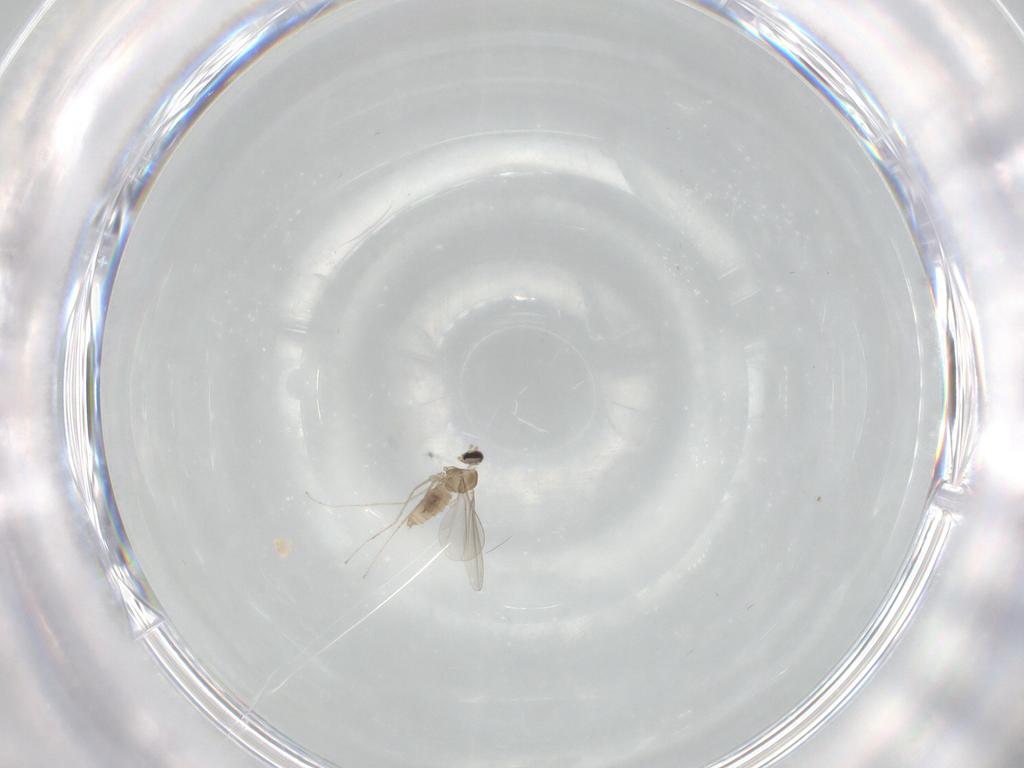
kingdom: Animalia
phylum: Arthropoda
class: Insecta
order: Diptera
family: Cecidomyiidae
